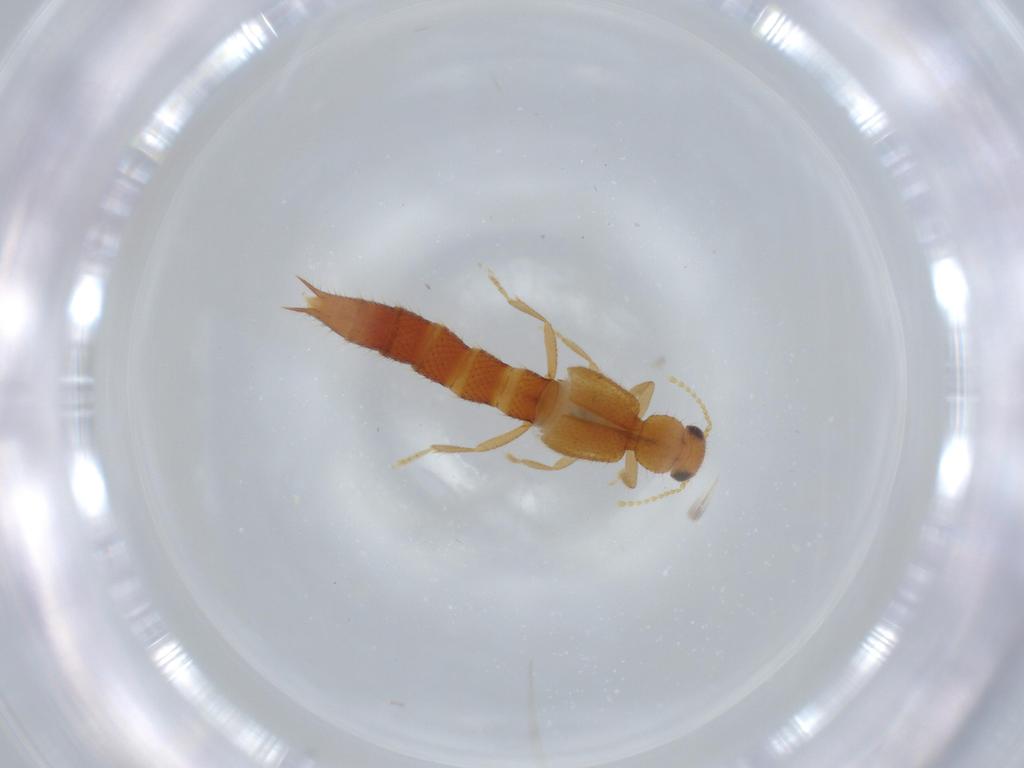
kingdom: Animalia
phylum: Arthropoda
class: Insecta
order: Coleoptera
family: Staphylinidae
